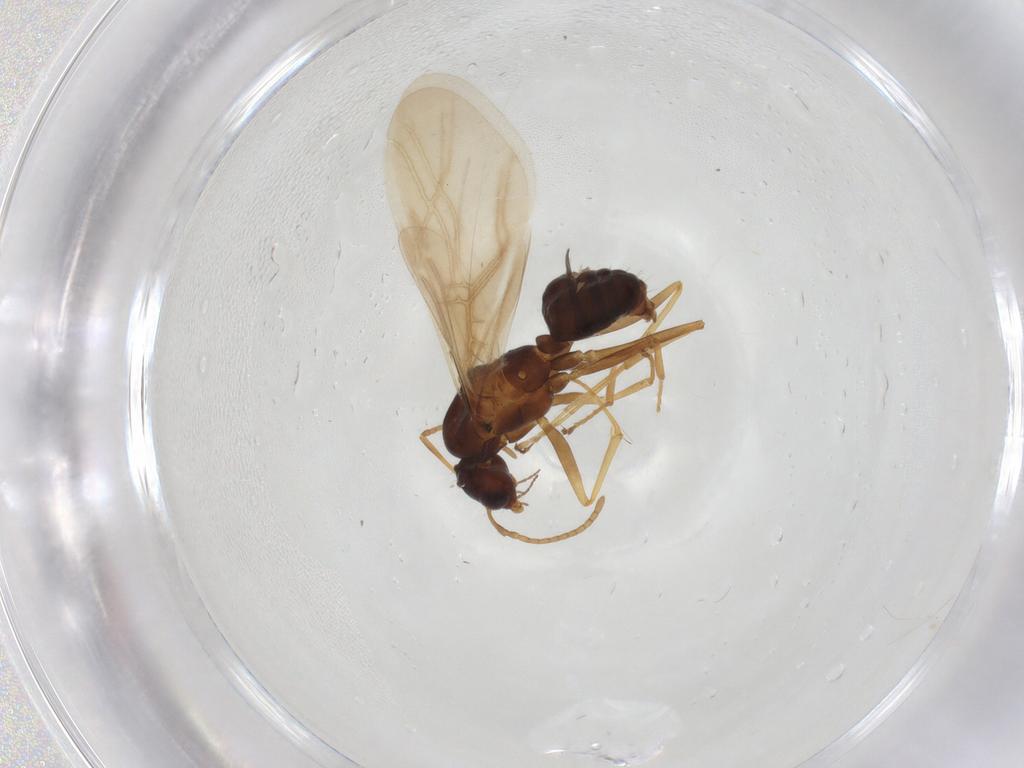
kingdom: Animalia
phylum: Arthropoda
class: Insecta
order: Hymenoptera
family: Formicidae
